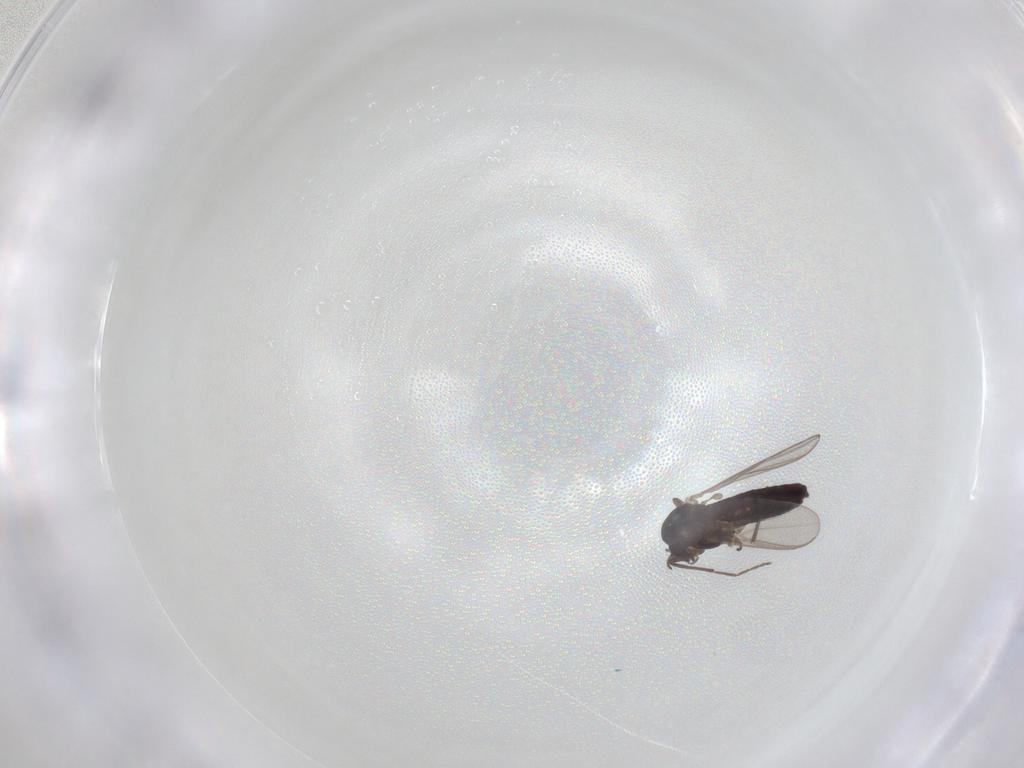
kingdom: Animalia
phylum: Arthropoda
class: Insecta
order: Diptera
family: Chironomidae
